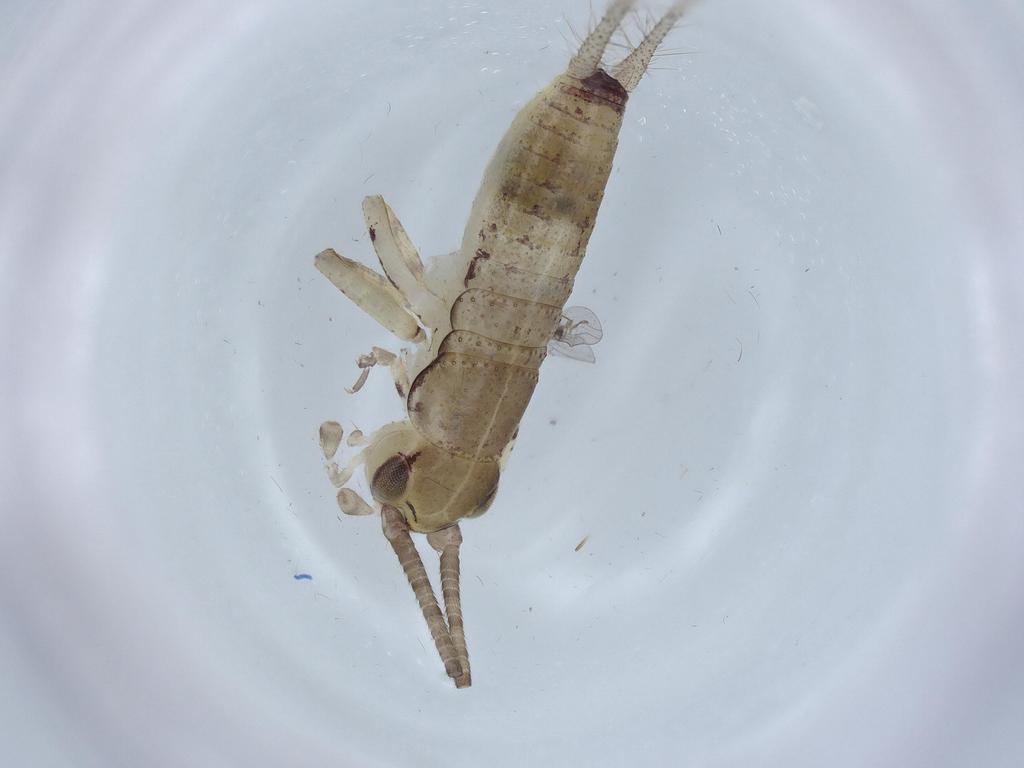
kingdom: Animalia
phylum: Arthropoda
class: Insecta
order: Orthoptera
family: Gryllidae
